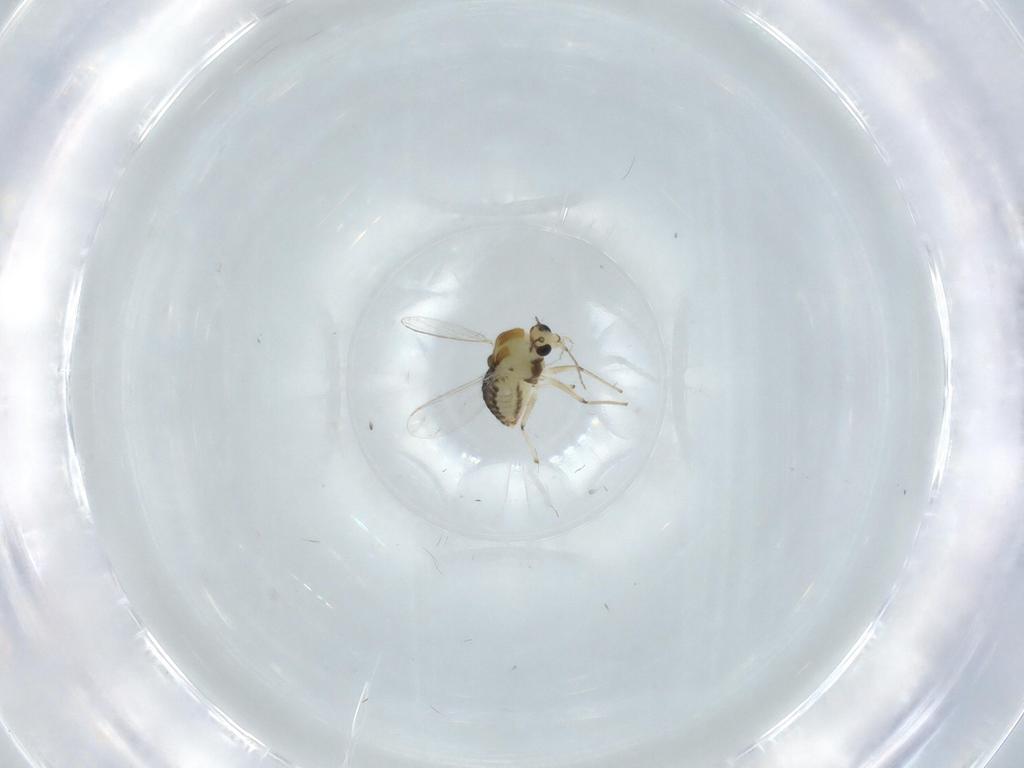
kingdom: Animalia
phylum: Arthropoda
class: Insecta
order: Diptera
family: Chironomidae
